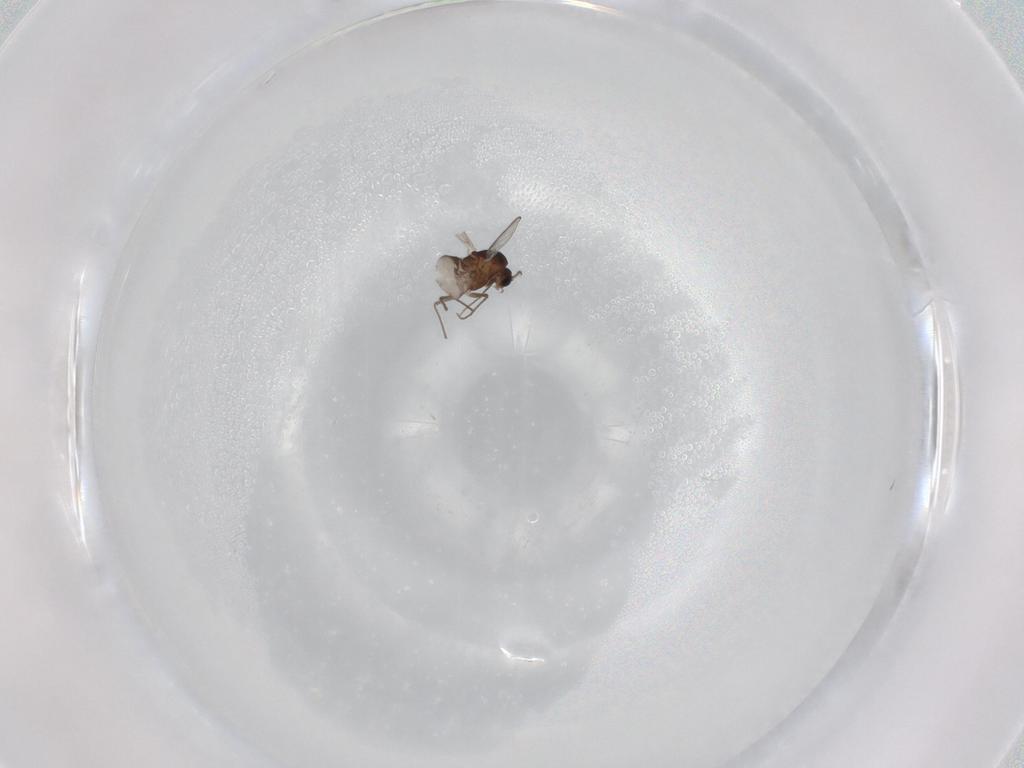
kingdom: Animalia
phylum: Arthropoda
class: Insecta
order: Diptera
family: Chironomidae
